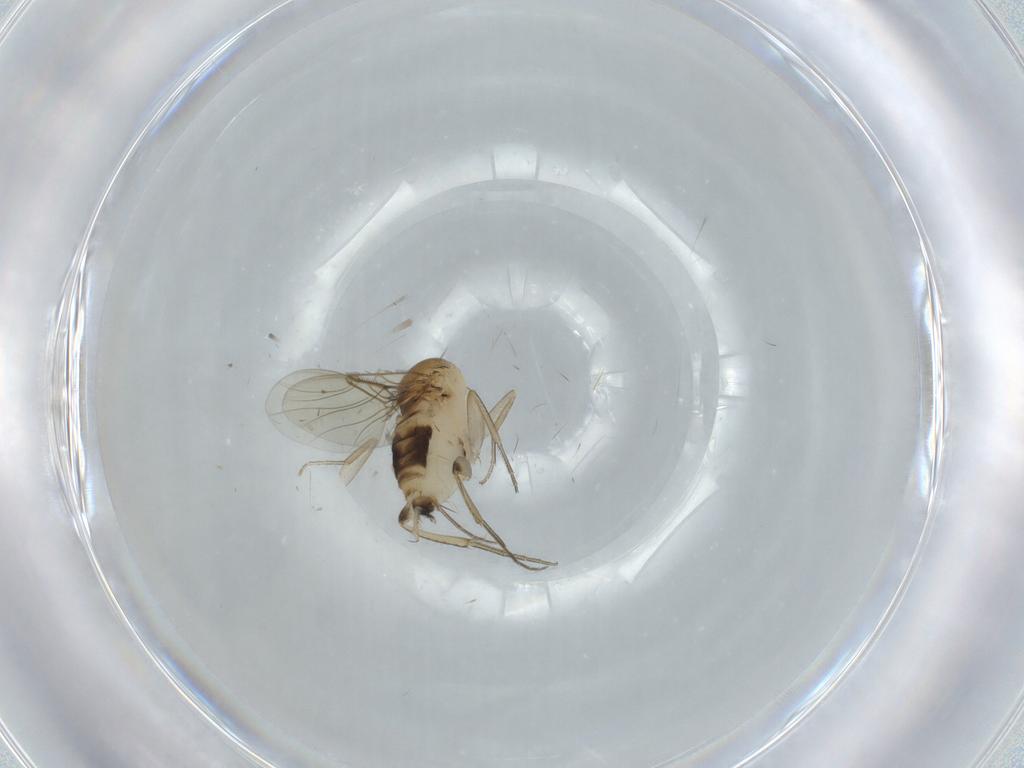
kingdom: Animalia
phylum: Arthropoda
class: Insecta
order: Diptera
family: Phoridae
